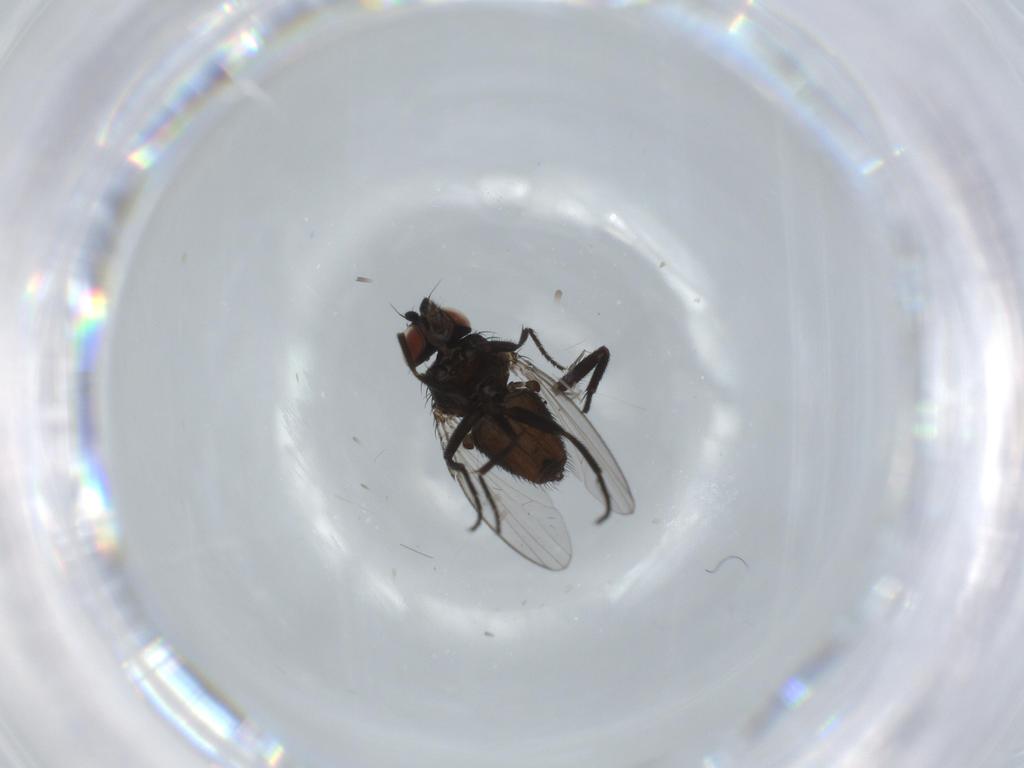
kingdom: Animalia
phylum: Arthropoda
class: Insecta
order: Diptera
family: Milichiidae
